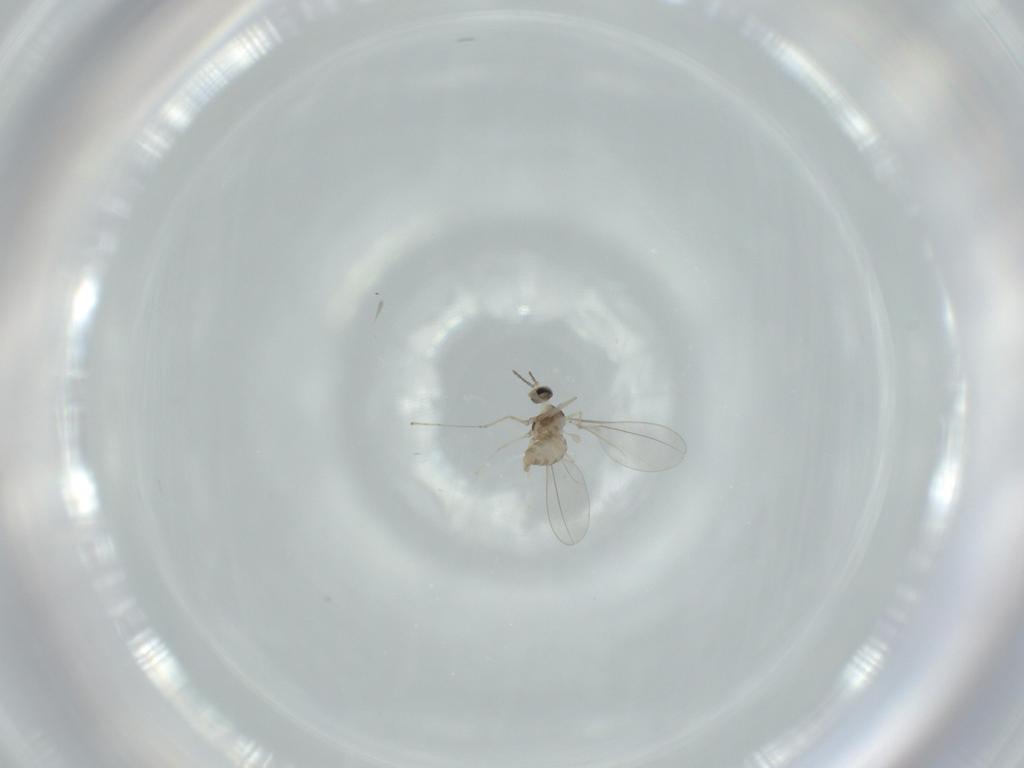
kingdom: Animalia
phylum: Arthropoda
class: Insecta
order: Diptera
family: Cecidomyiidae
